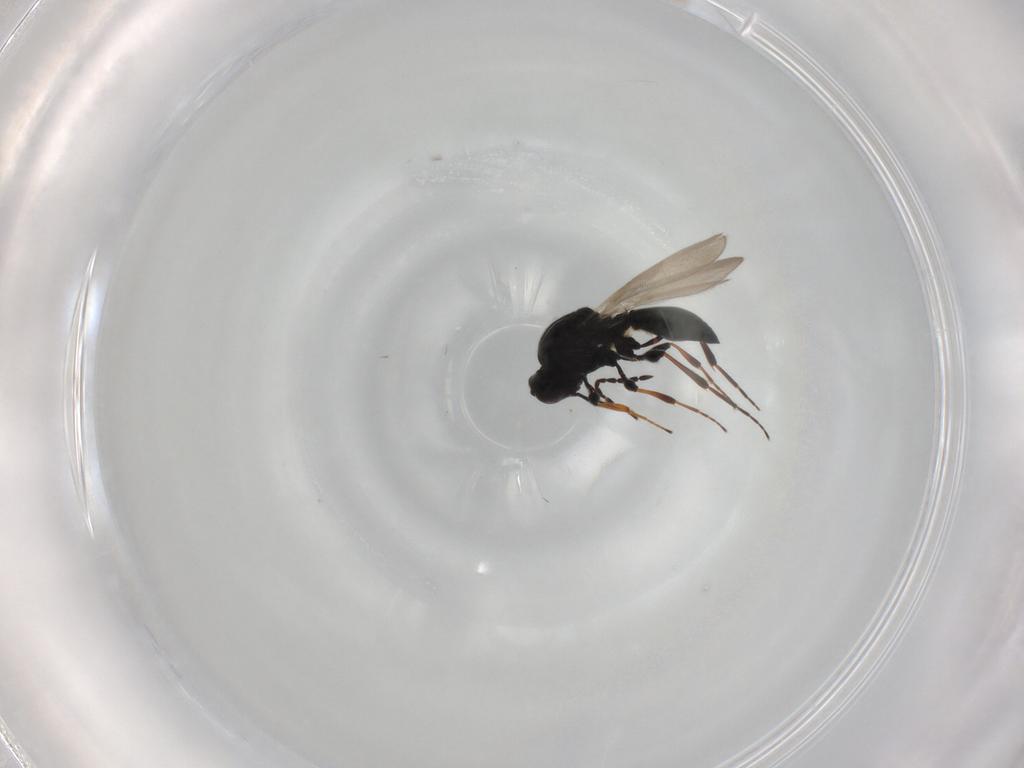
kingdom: Animalia
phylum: Arthropoda
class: Insecta
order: Hymenoptera
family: Platygastridae
